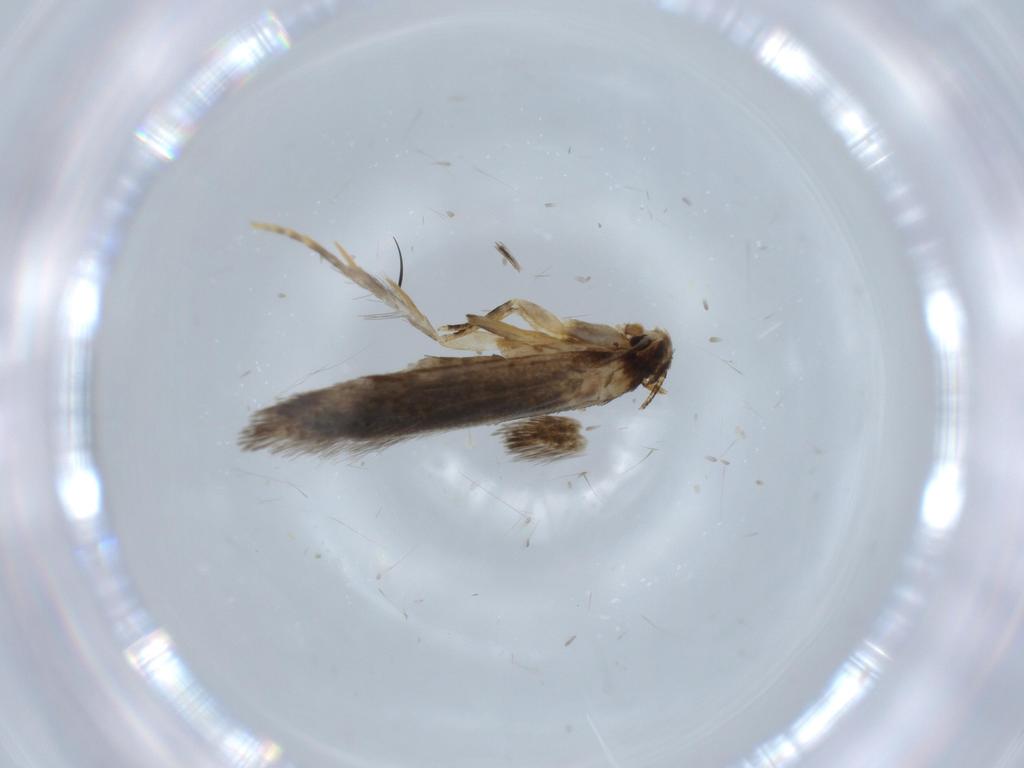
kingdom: Animalia
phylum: Arthropoda
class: Insecta
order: Lepidoptera
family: Tineidae
